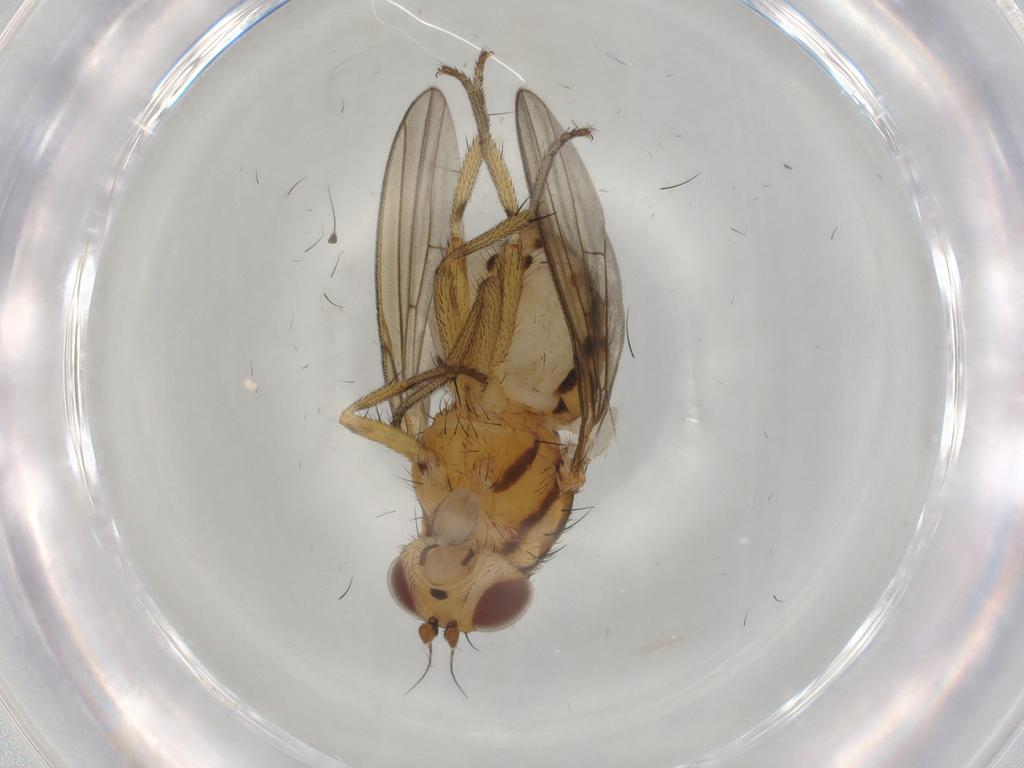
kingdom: Animalia
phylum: Arthropoda
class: Insecta
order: Diptera
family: Ceratopogonidae
